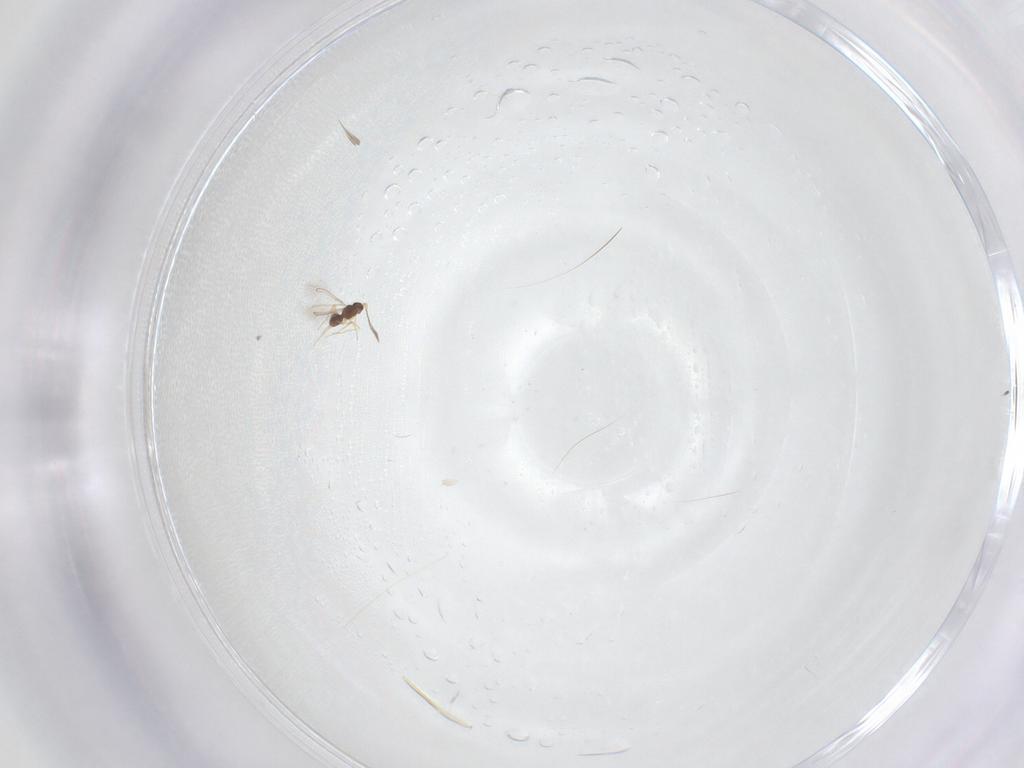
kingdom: Animalia
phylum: Arthropoda
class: Insecta
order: Hymenoptera
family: Mymaridae
